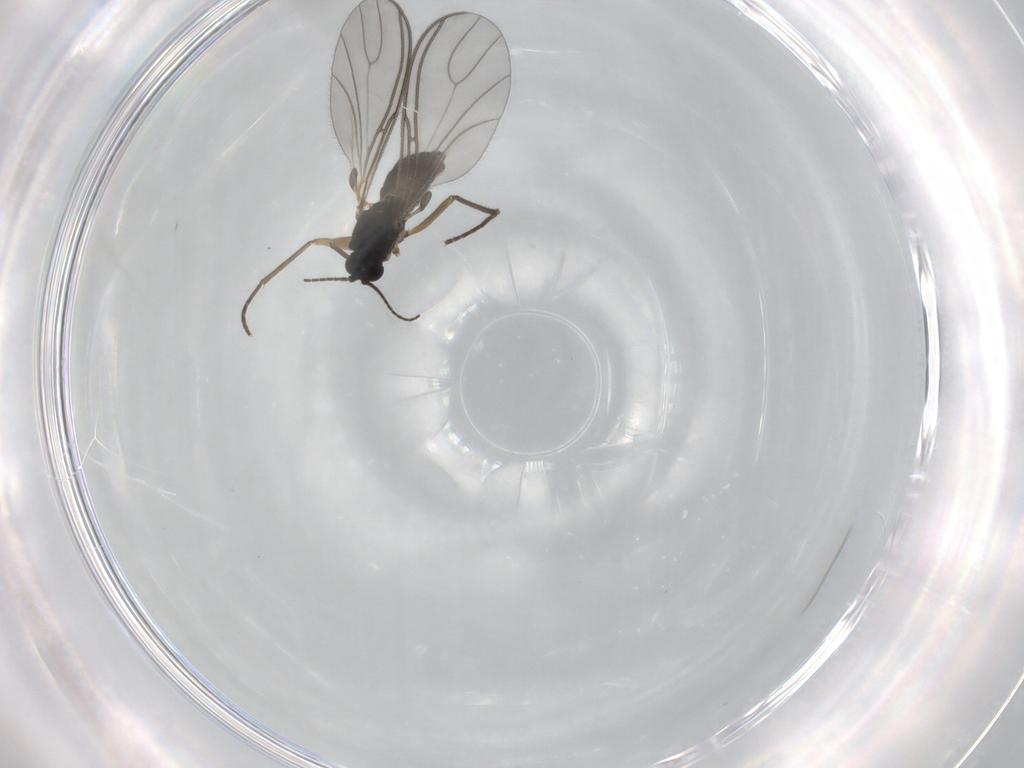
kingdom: Animalia
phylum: Arthropoda
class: Insecta
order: Diptera
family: Sciaridae
